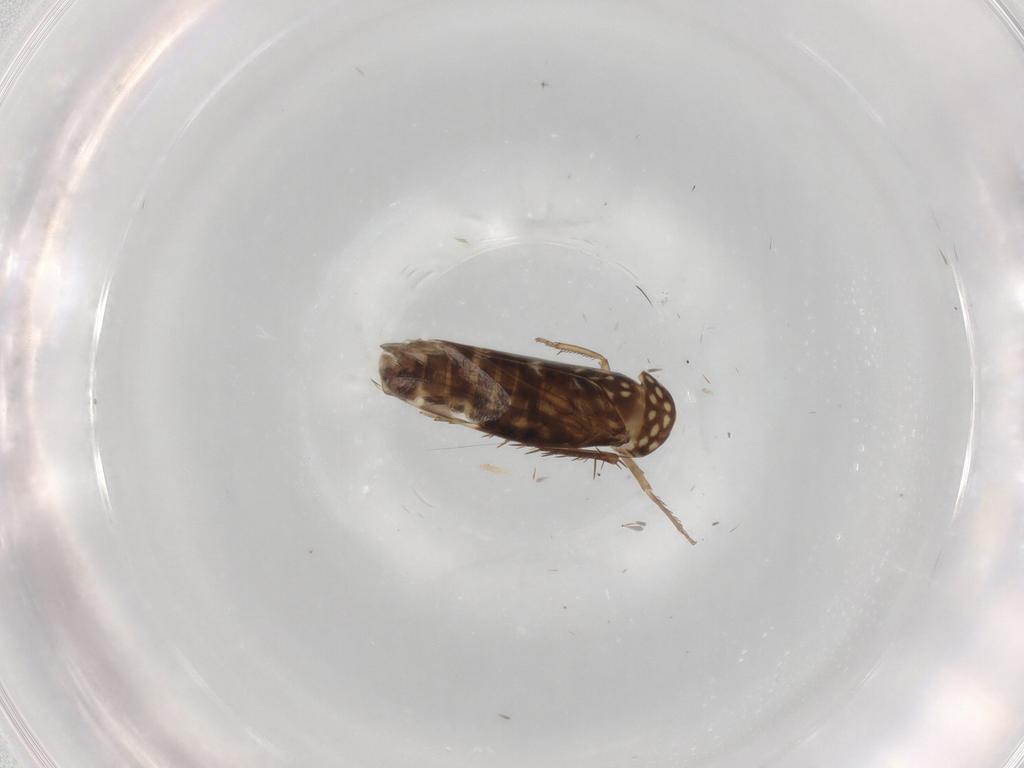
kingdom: Animalia
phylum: Arthropoda
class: Insecta
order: Hemiptera
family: Cicadellidae
